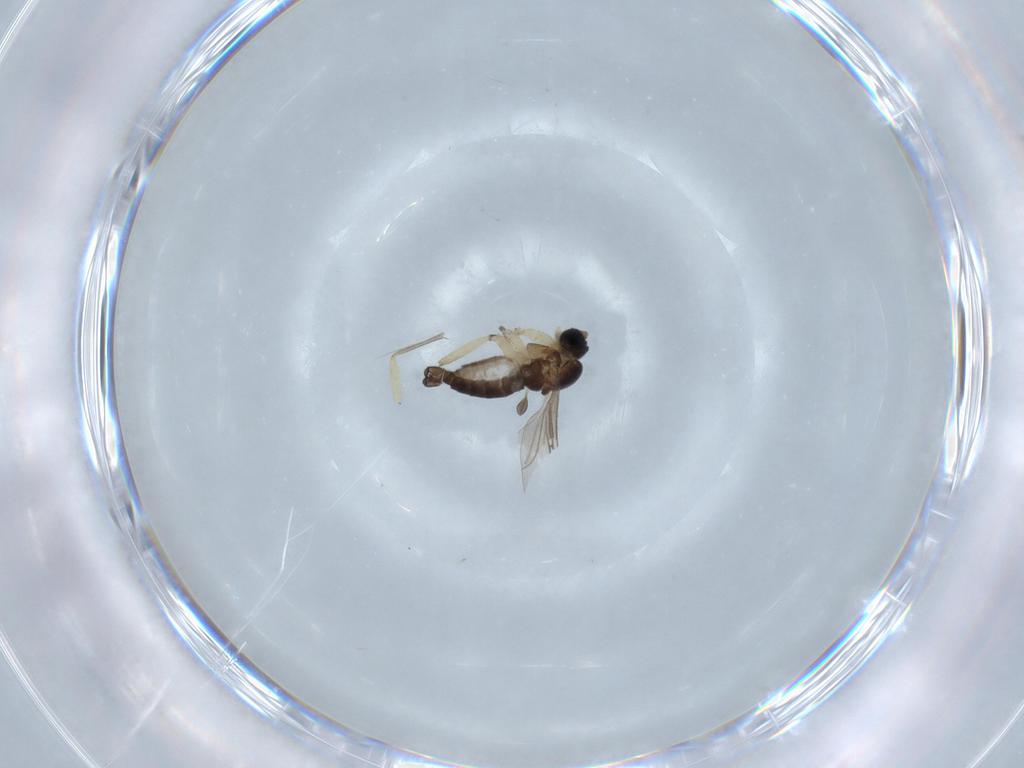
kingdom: Animalia
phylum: Arthropoda
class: Insecta
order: Diptera
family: Sciaridae
